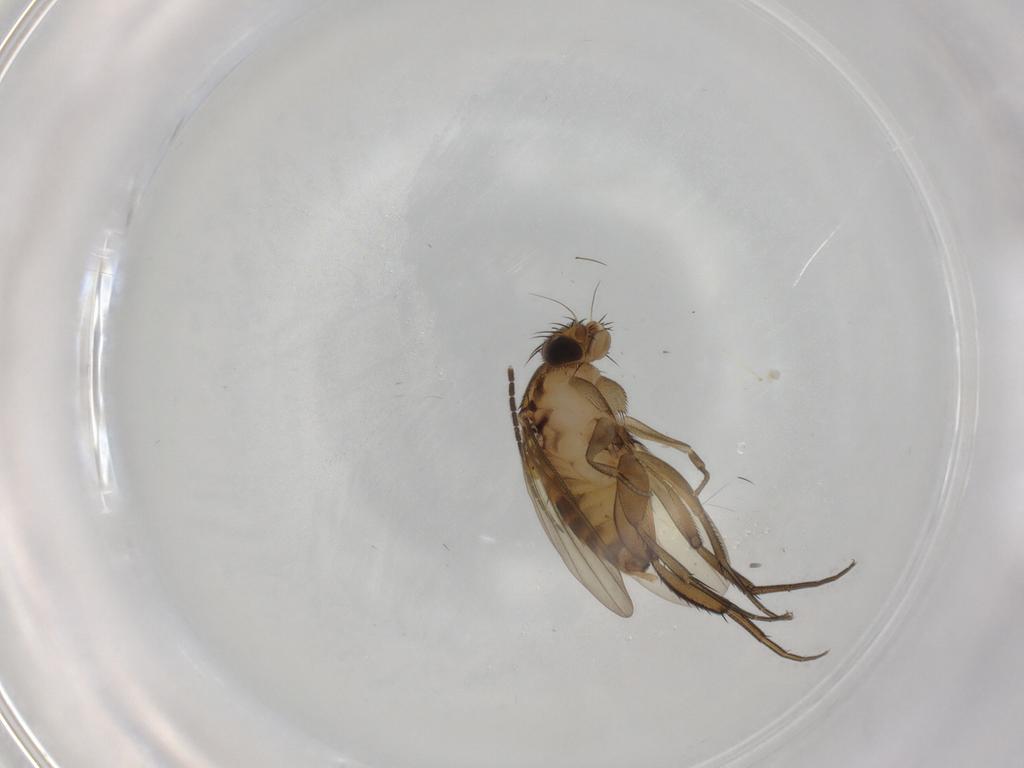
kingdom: Animalia
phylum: Arthropoda
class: Insecta
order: Diptera
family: Phoridae
